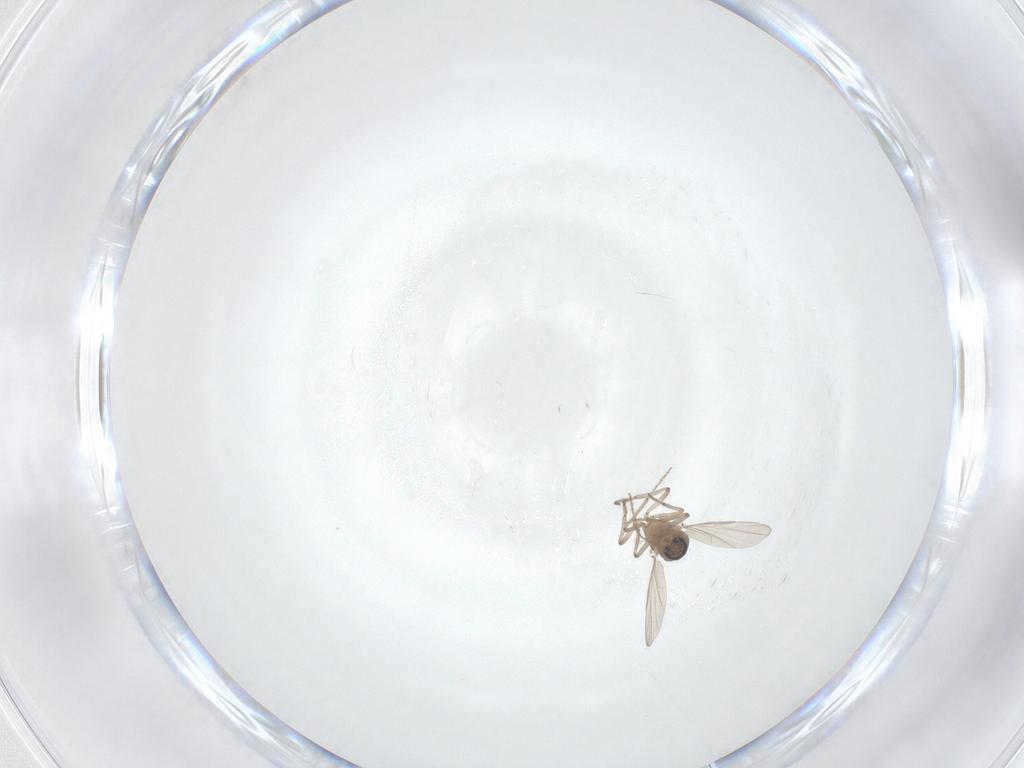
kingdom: Animalia
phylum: Arthropoda
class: Insecta
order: Diptera
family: Ceratopogonidae
